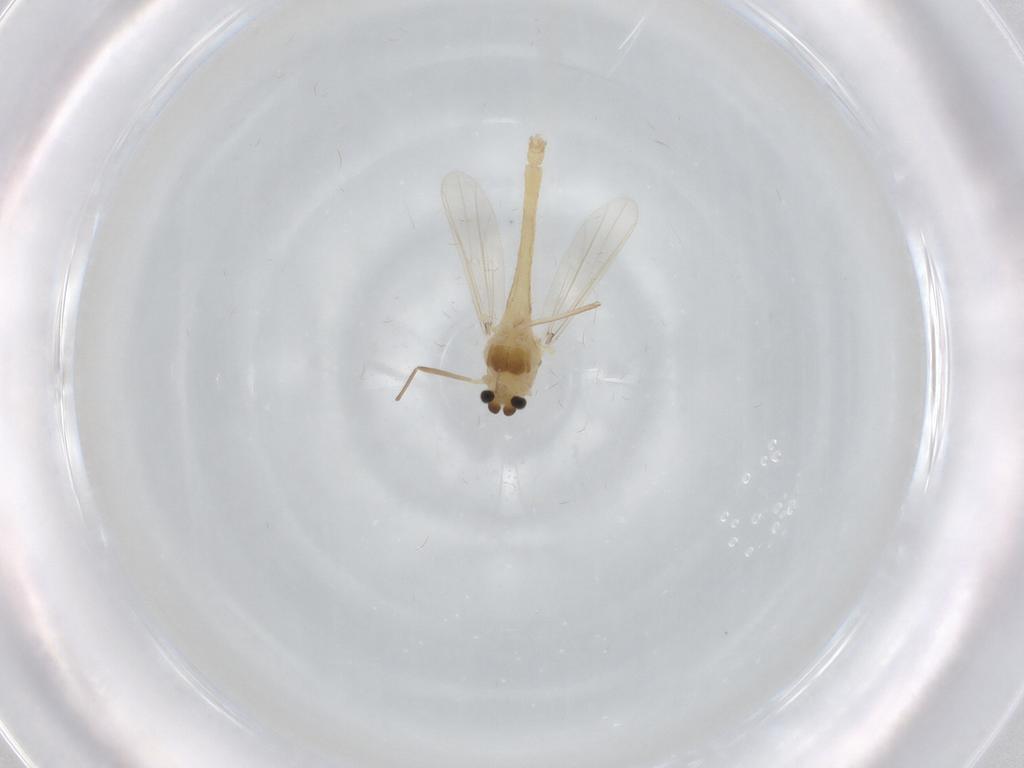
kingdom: Animalia
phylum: Arthropoda
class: Insecta
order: Diptera
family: Chironomidae
